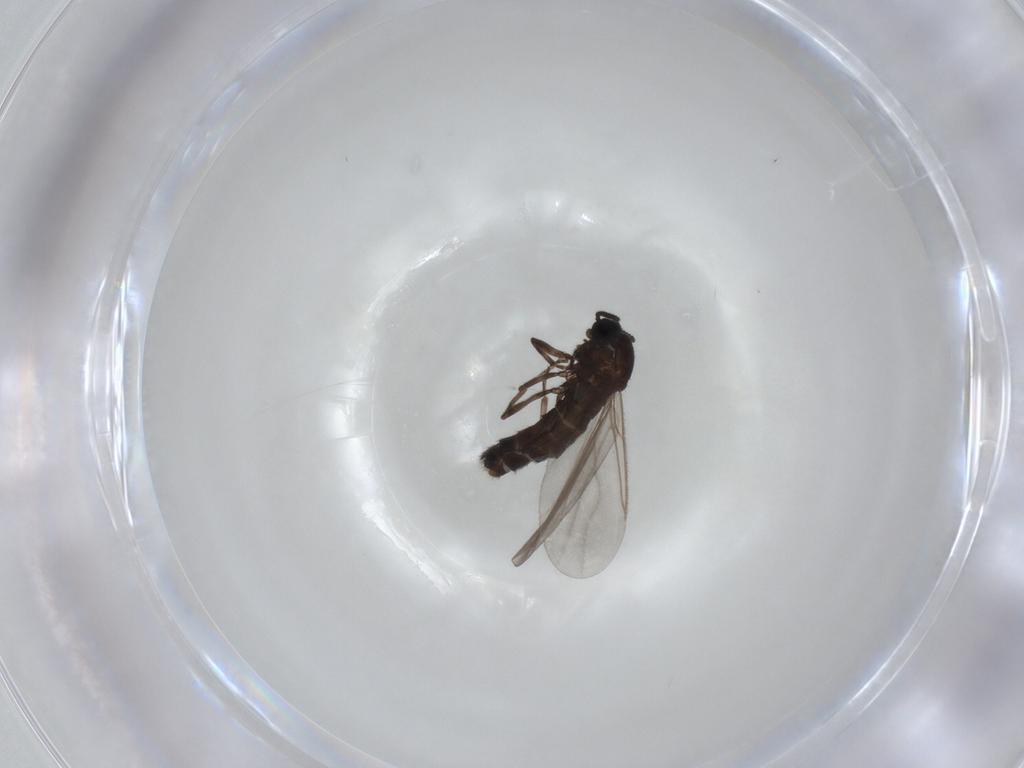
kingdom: Animalia
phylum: Arthropoda
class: Insecta
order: Diptera
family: Scatopsidae
